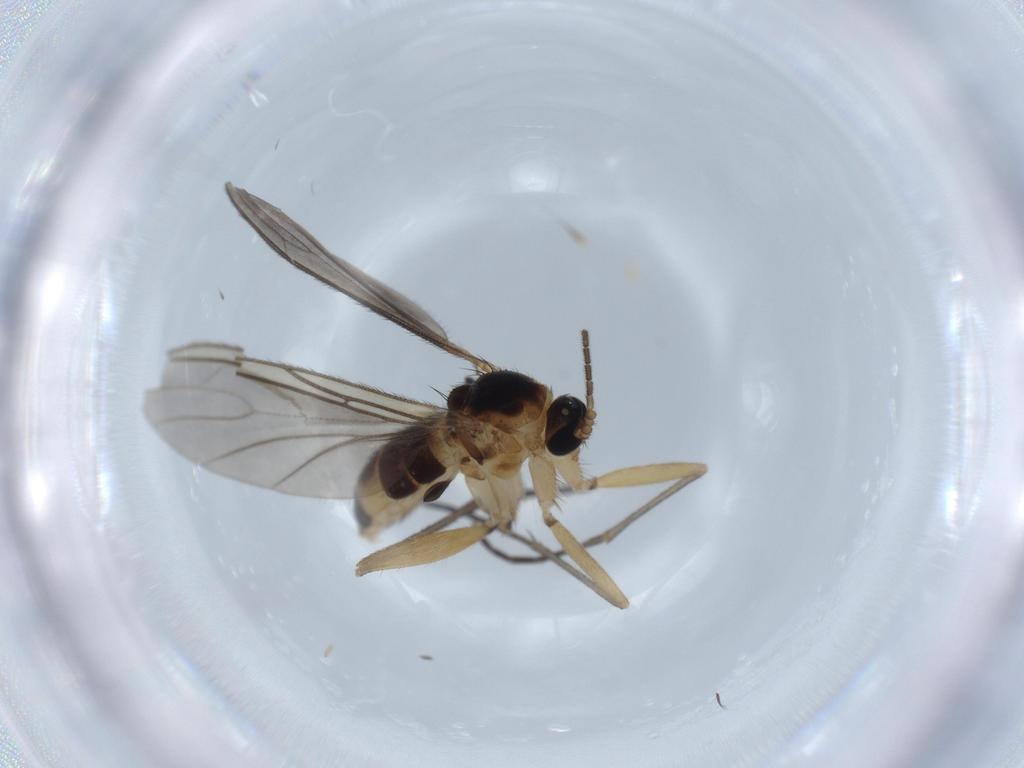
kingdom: Animalia
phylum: Arthropoda
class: Insecta
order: Diptera
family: Sciaridae
